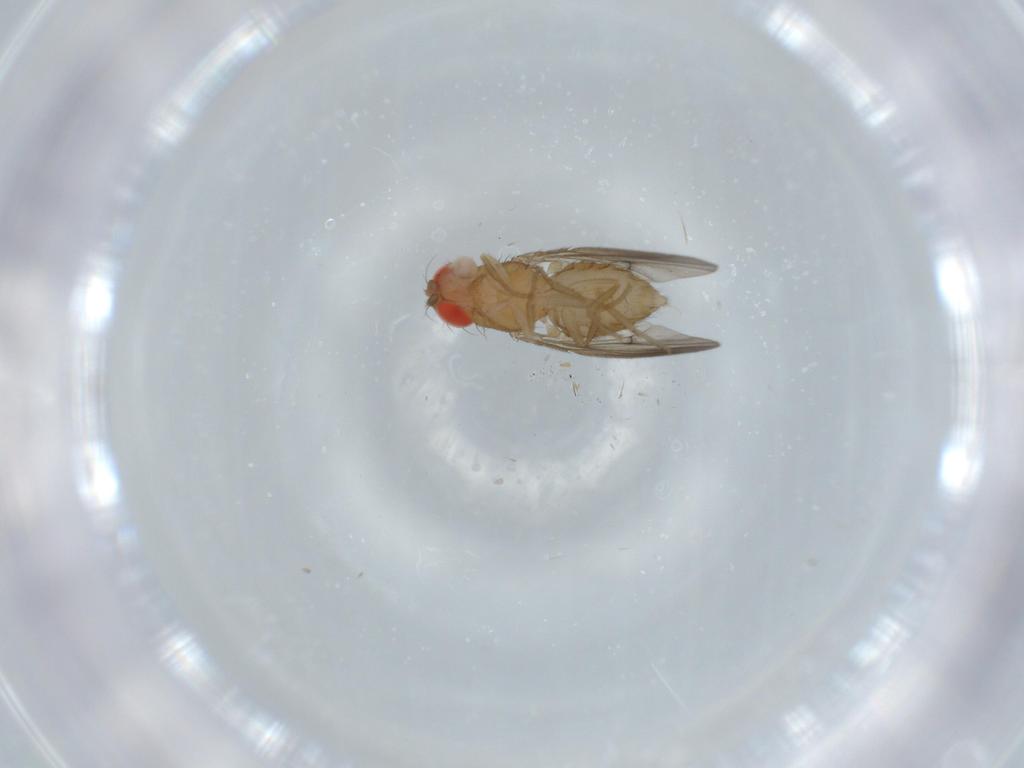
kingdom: Animalia
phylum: Arthropoda
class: Insecta
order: Diptera
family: Drosophilidae
